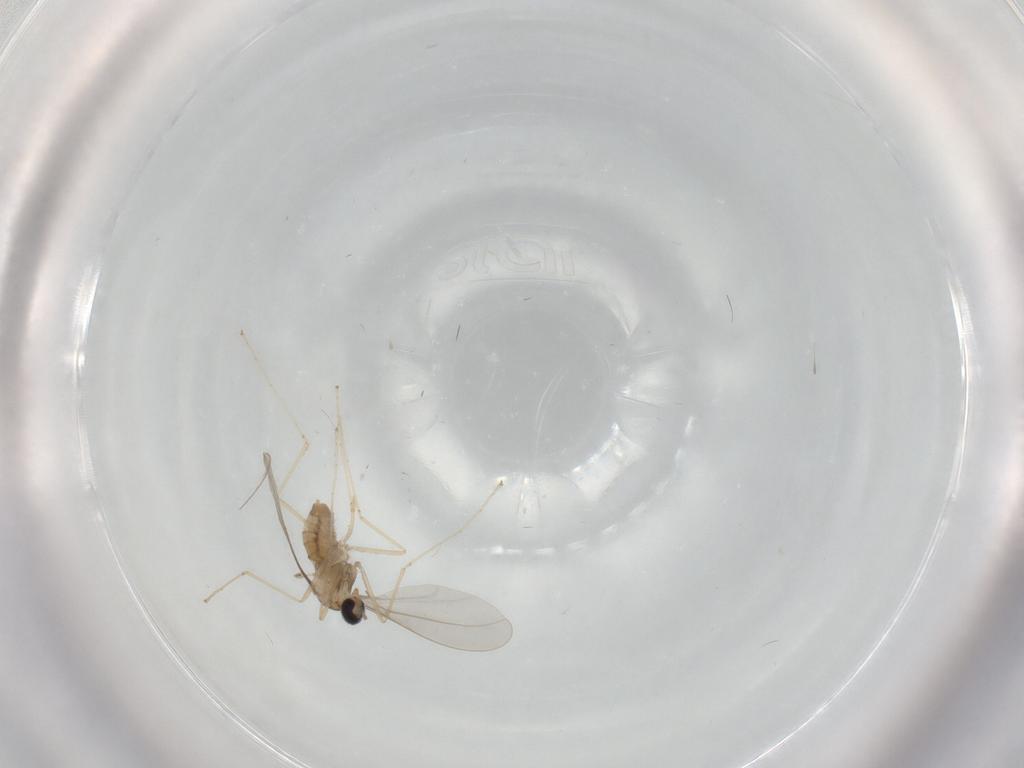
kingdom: Animalia
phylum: Arthropoda
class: Insecta
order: Diptera
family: Cecidomyiidae
